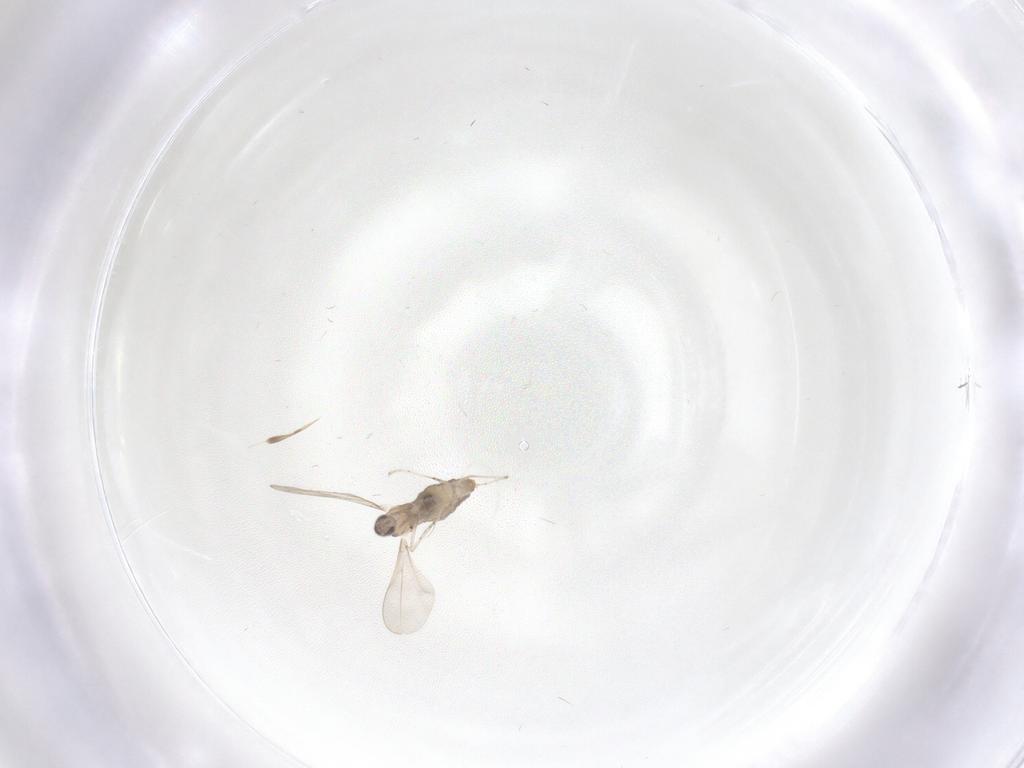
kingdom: Animalia
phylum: Arthropoda
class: Insecta
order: Diptera
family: Cecidomyiidae
